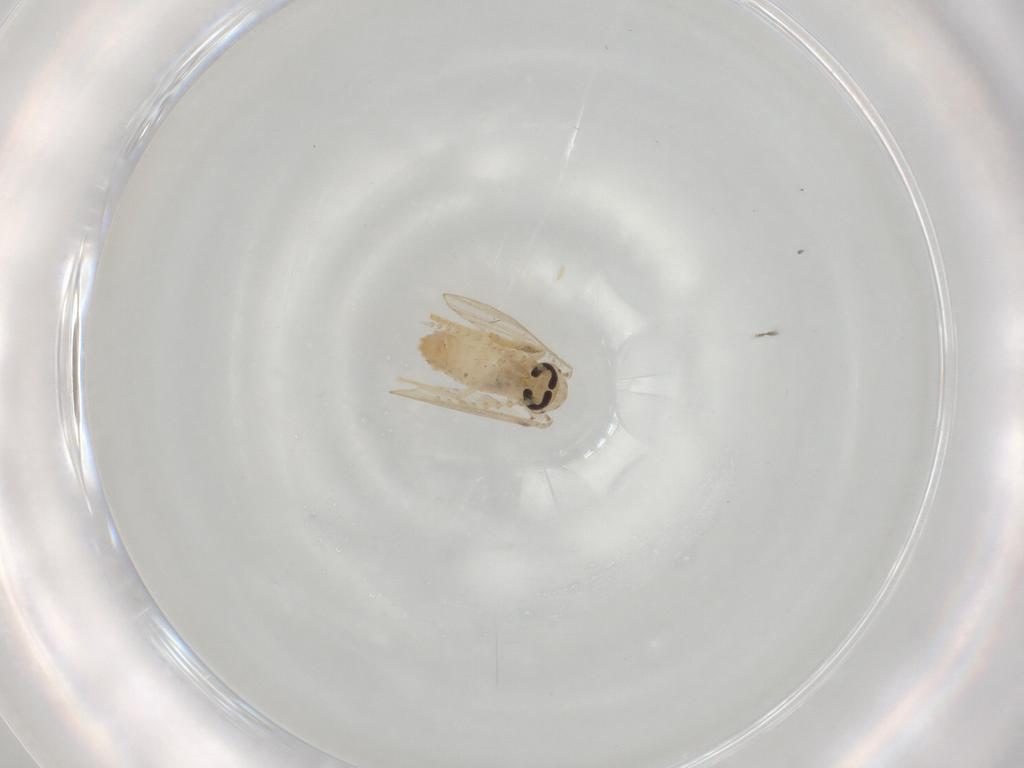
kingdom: Animalia
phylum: Arthropoda
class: Insecta
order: Diptera
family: Psychodidae
